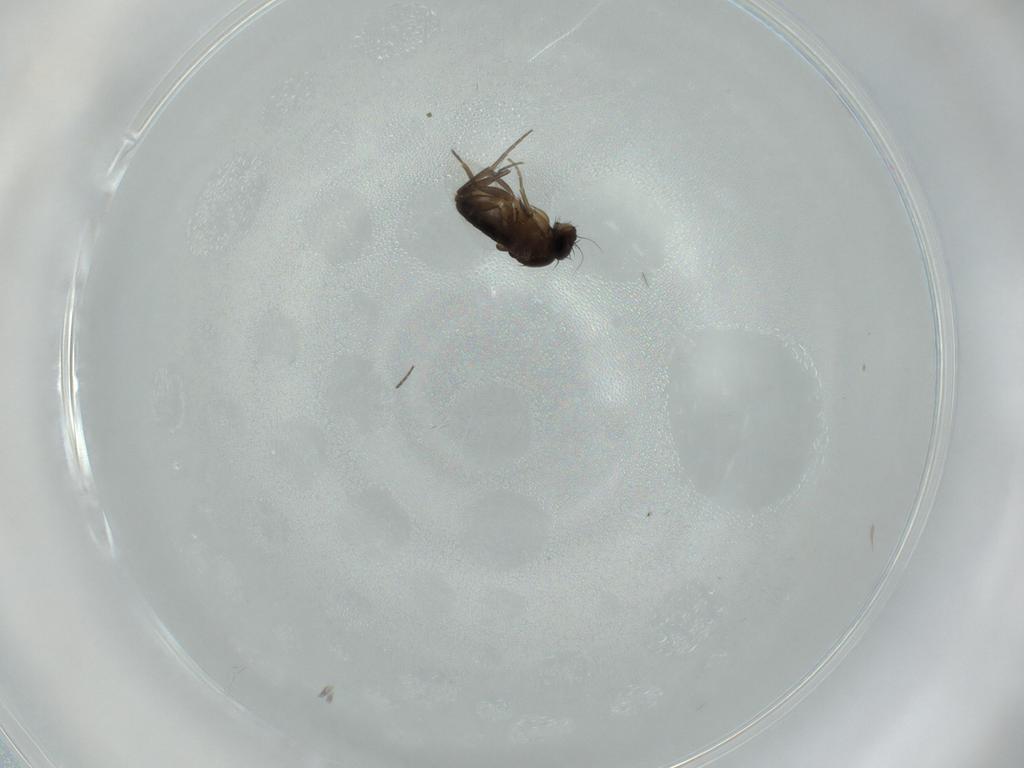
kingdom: Animalia
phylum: Arthropoda
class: Insecta
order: Diptera
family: Phoridae
